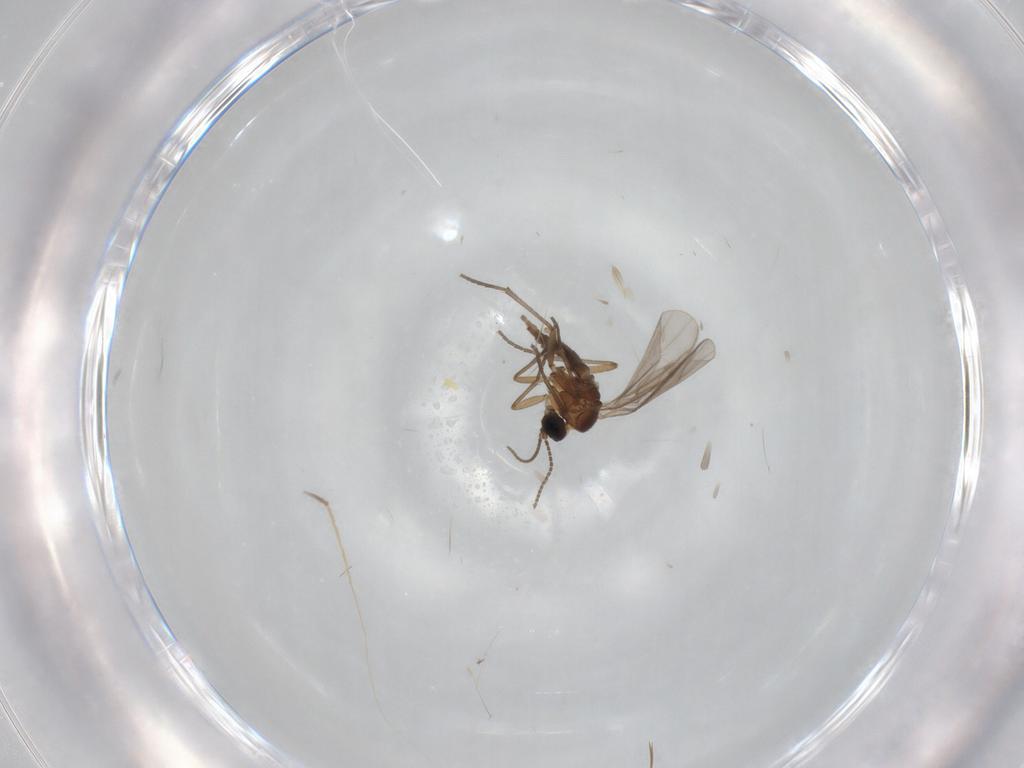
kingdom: Animalia
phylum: Arthropoda
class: Insecta
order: Diptera
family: Sciaridae
